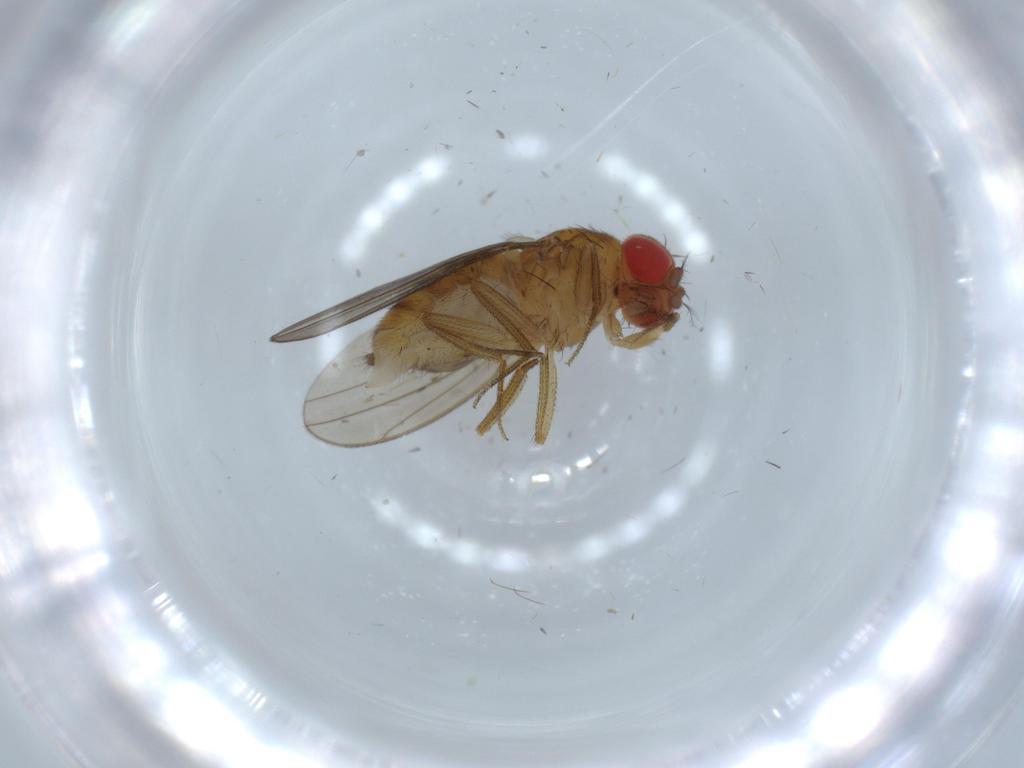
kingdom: Animalia
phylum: Arthropoda
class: Insecta
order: Diptera
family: Drosophilidae
